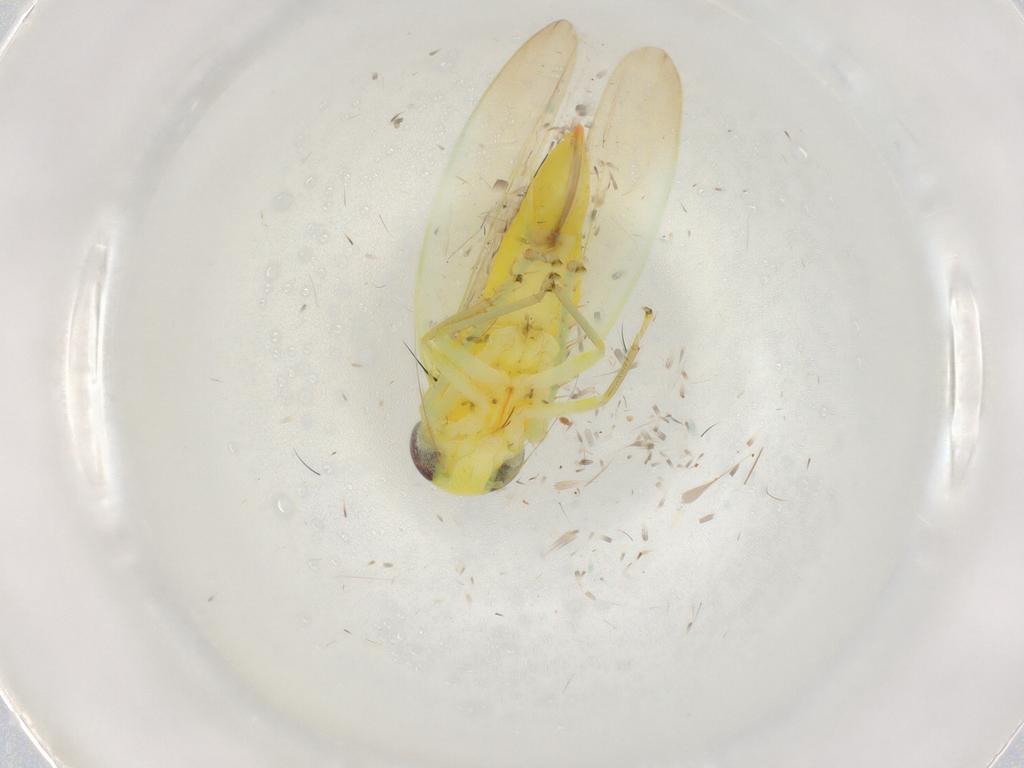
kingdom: Animalia
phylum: Arthropoda
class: Insecta
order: Hemiptera
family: Cicadellidae
